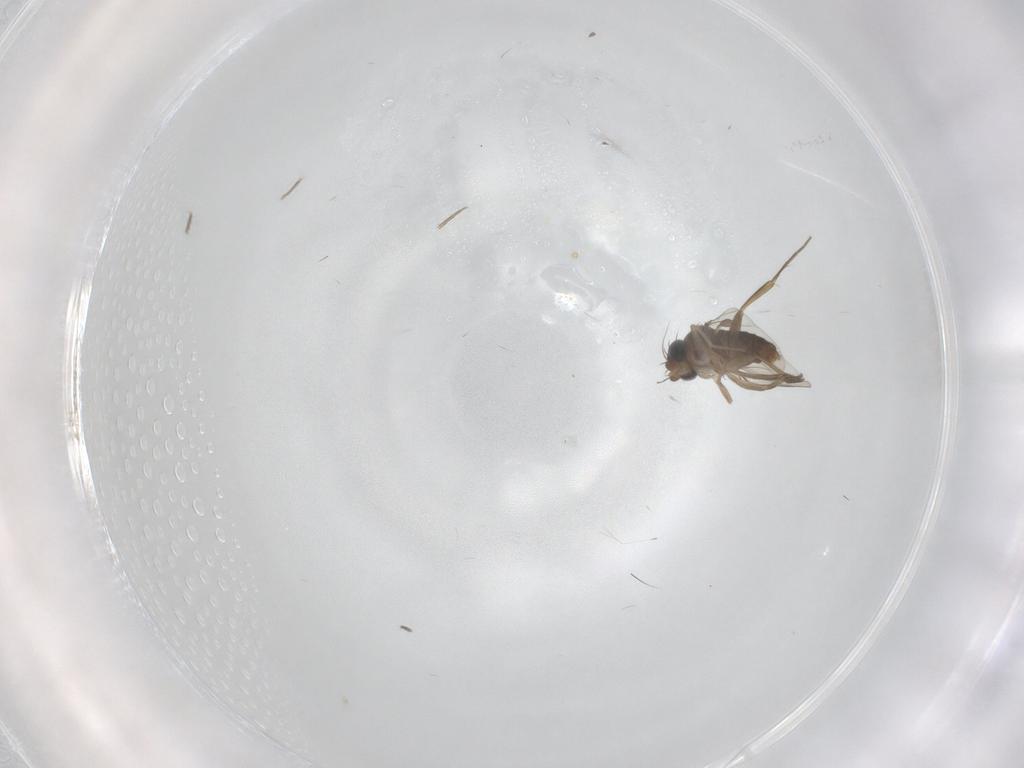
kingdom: Animalia
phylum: Arthropoda
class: Insecta
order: Diptera
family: Phoridae
